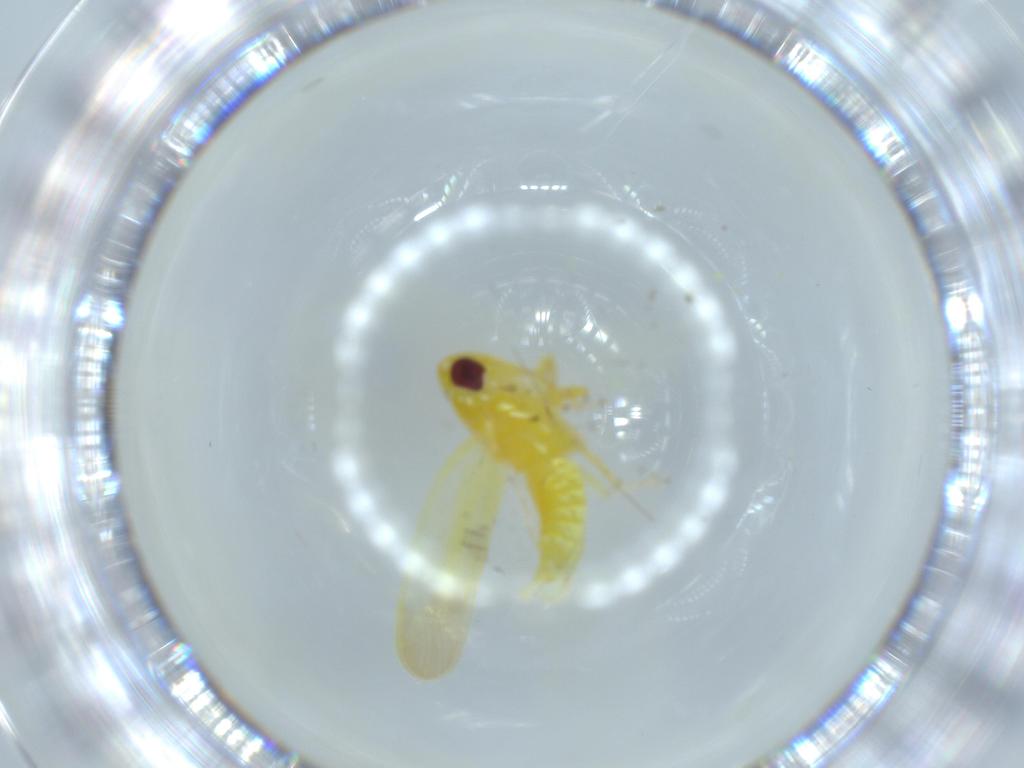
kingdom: Animalia
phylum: Arthropoda
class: Insecta
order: Hemiptera
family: Cicadellidae
